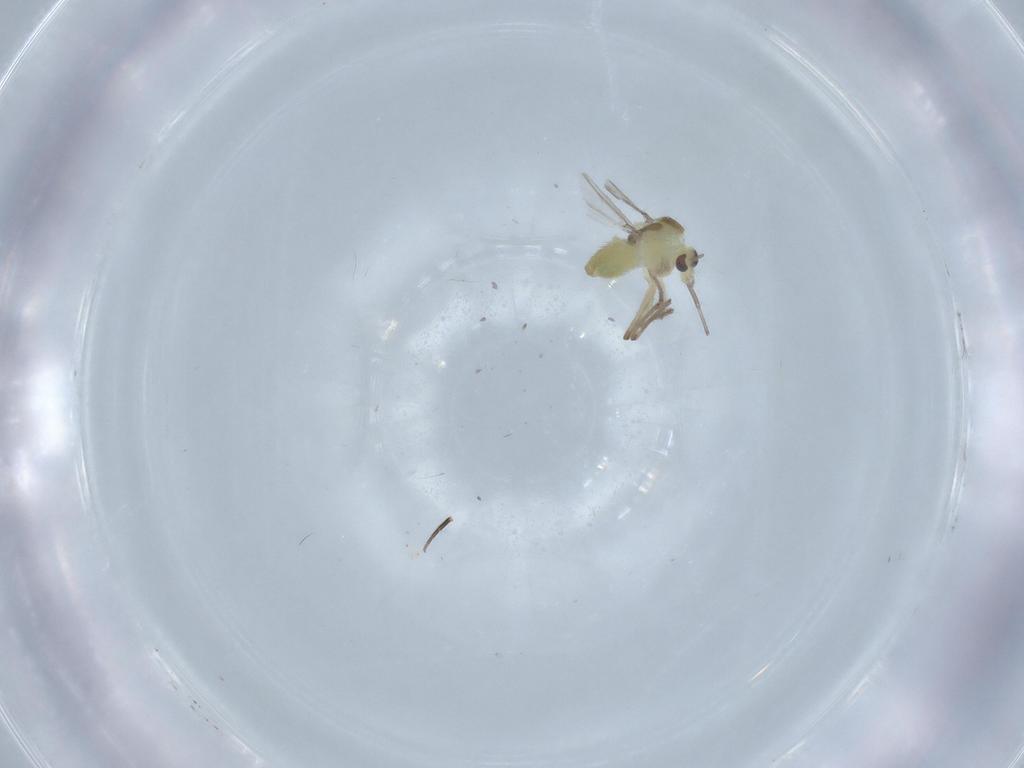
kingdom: Animalia
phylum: Arthropoda
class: Insecta
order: Diptera
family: Chironomidae
